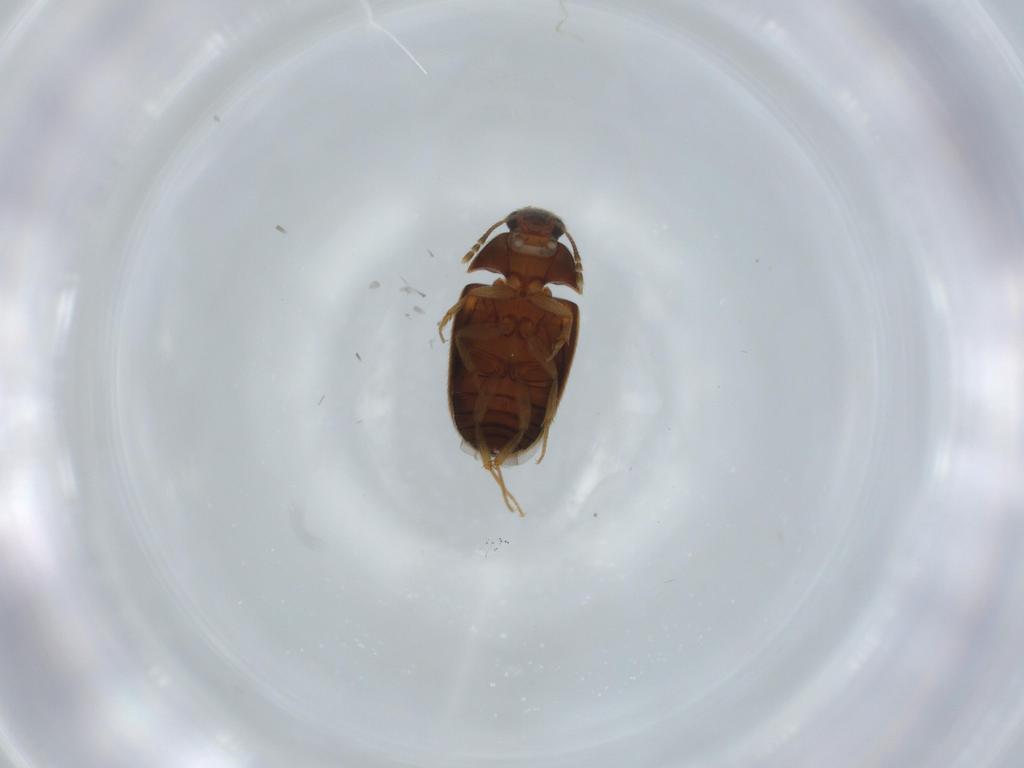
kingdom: Animalia
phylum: Arthropoda
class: Insecta
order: Coleoptera
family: Mycetophagidae
